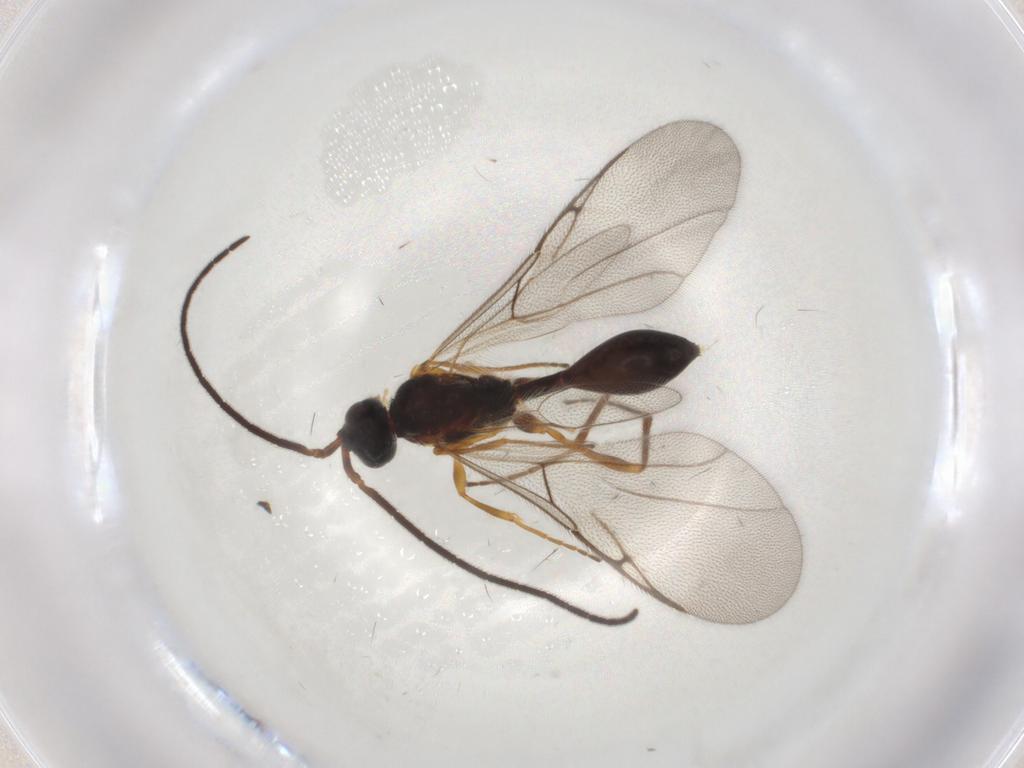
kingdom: Animalia
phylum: Arthropoda
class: Insecta
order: Hymenoptera
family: Diapriidae
